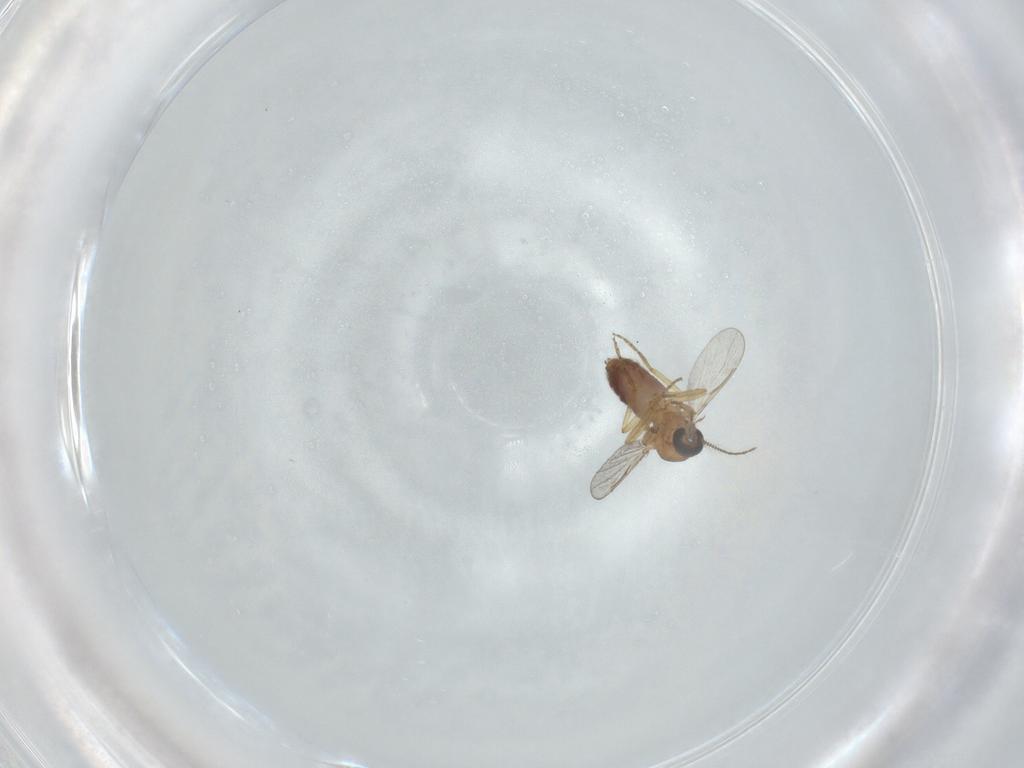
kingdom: Animalia
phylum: Arthropoda
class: Insecta
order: Diptera
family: Ceratopogonidae
